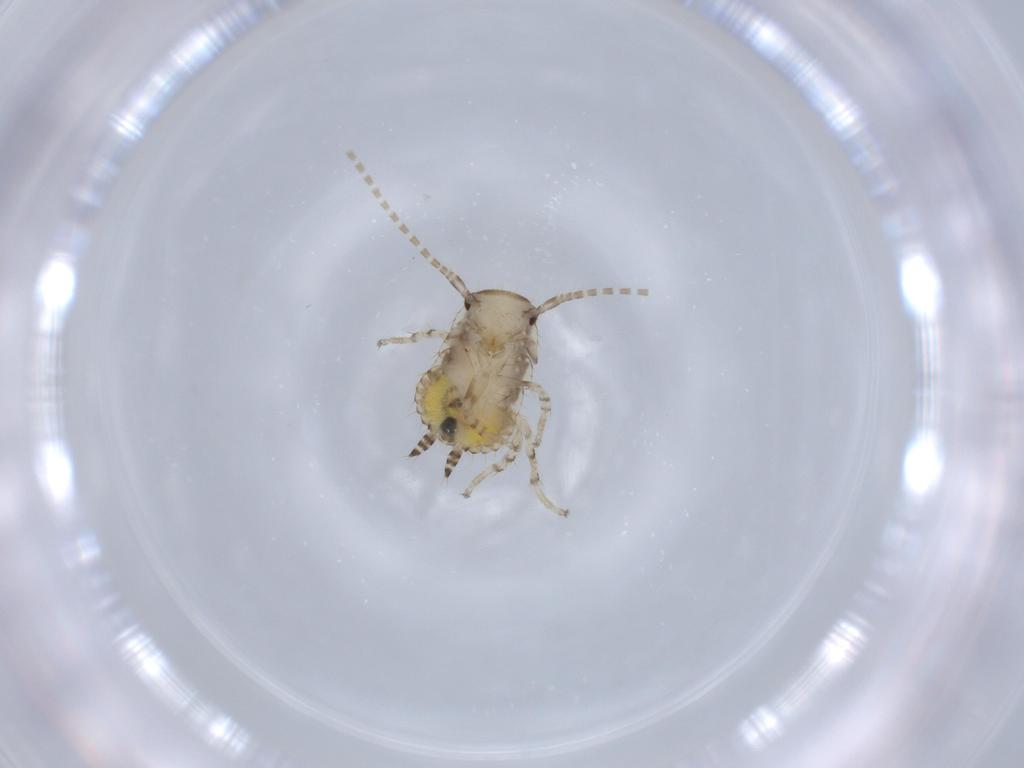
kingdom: Animalia
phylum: Arthropoda
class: Insecta
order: Blattodea
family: Ectobiidae
